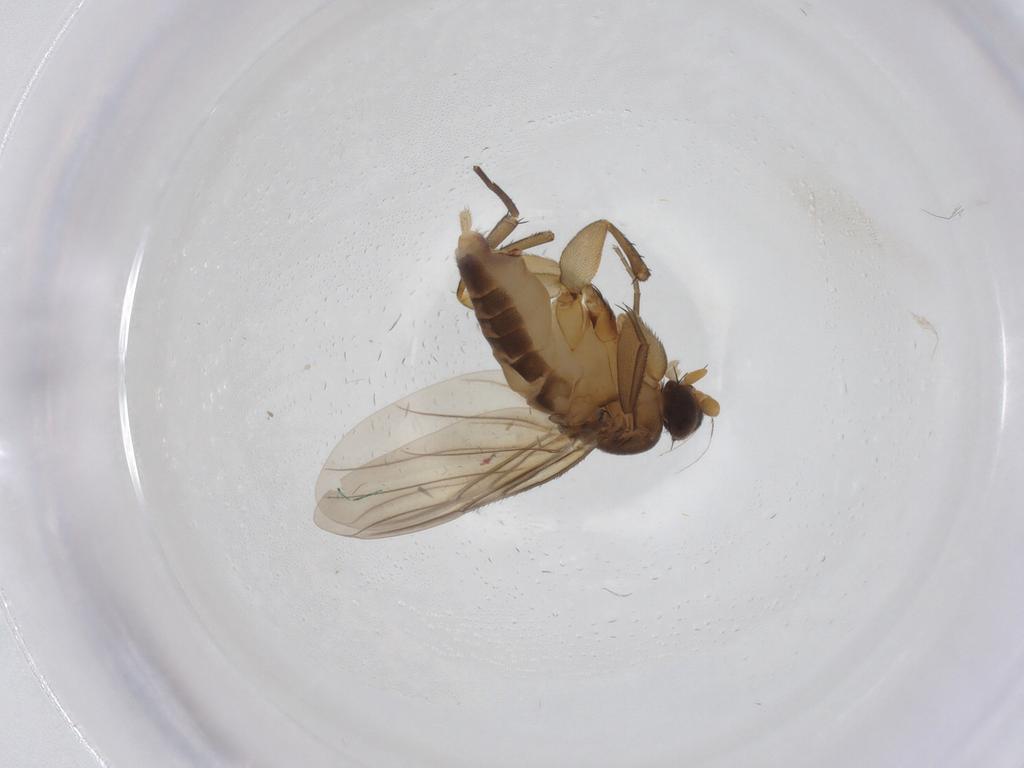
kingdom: Animalia
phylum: Arthropoda
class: Insecta
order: Diptera
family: Phoridae
